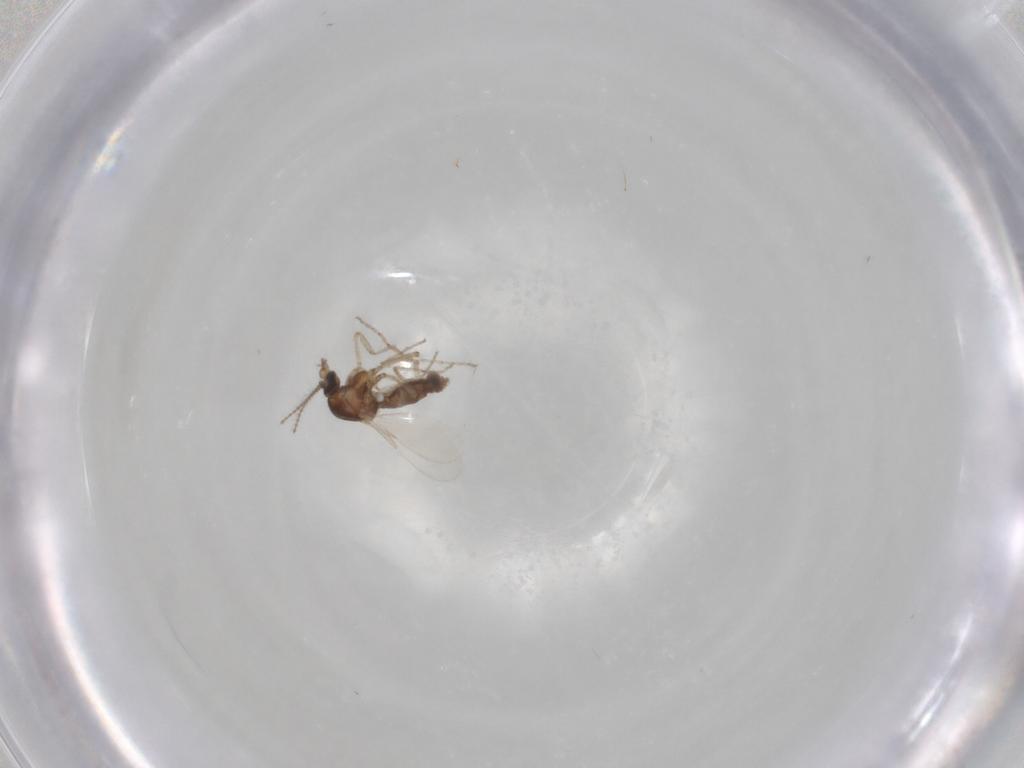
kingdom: Animalia
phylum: Arthropoda
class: Insecta
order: Diptera
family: Ceratopogonidae
